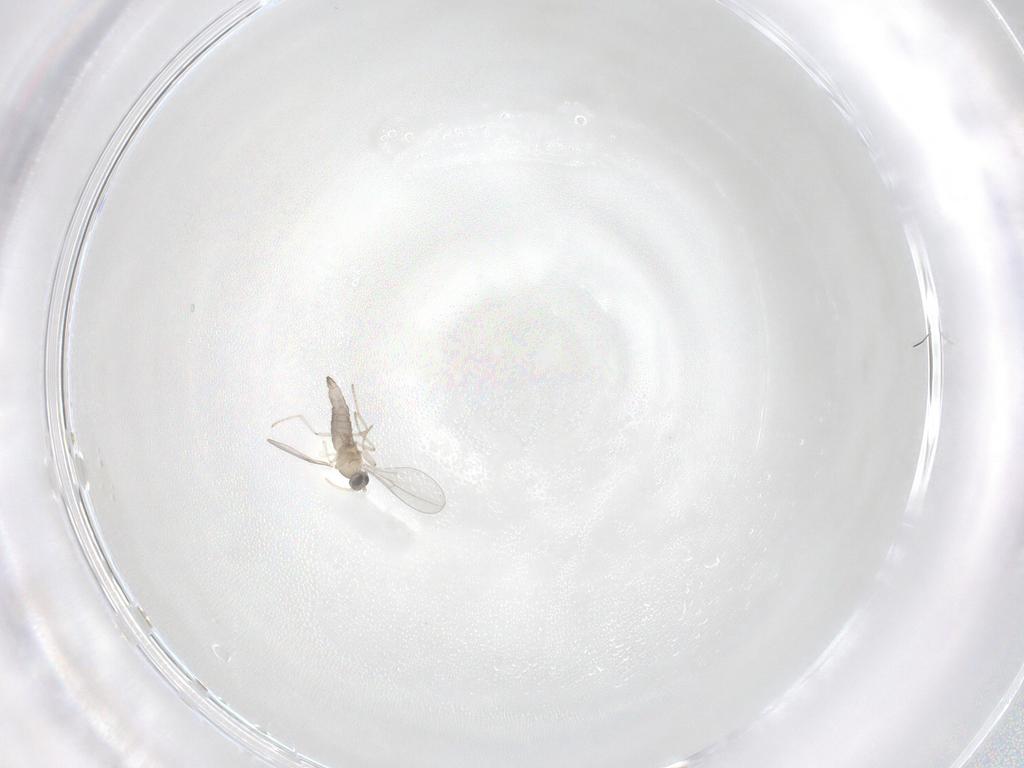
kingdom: Animalia
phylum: Arthropoda
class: Insecta
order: Diptera
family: Cecidomyiidae
